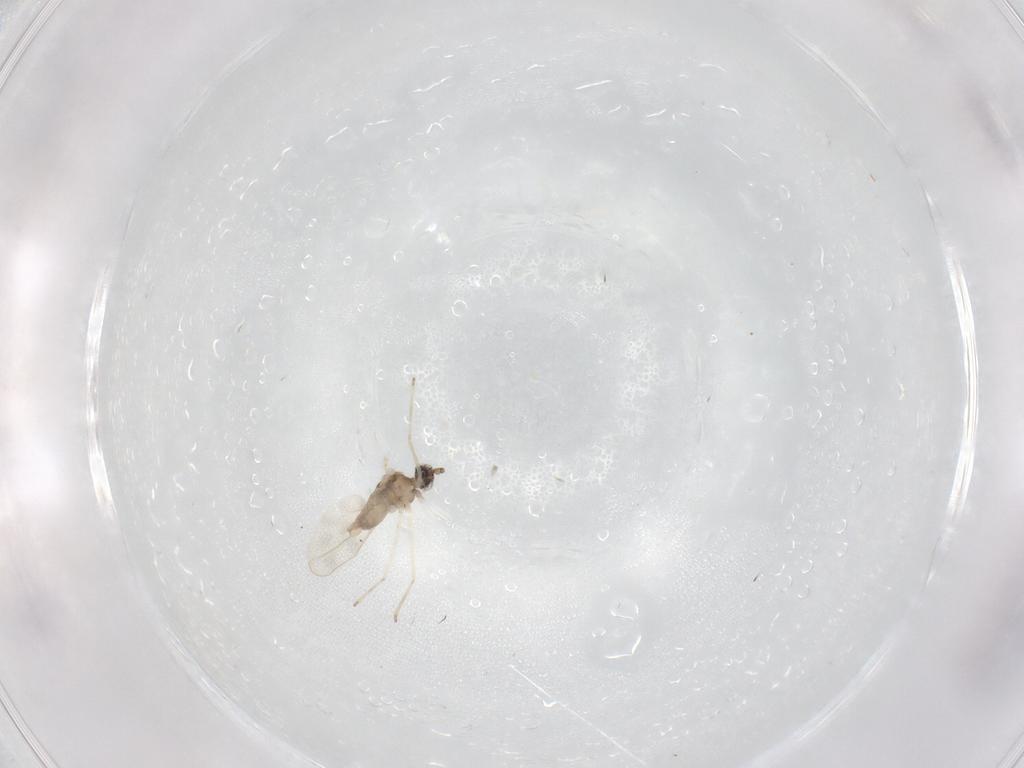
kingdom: Animalia
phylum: Arthropoda
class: Insecta
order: Diptera
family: Cecidomyiidae
